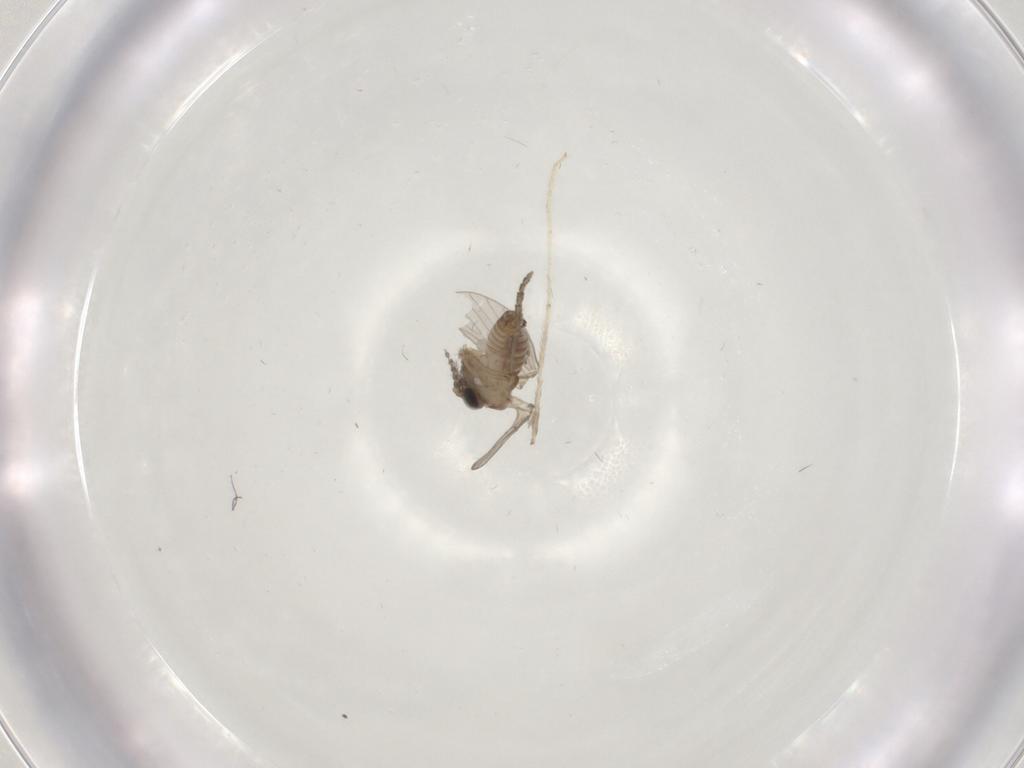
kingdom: Animalia
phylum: Arthropoda
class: Insecta
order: Diptera
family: Psychodidae
